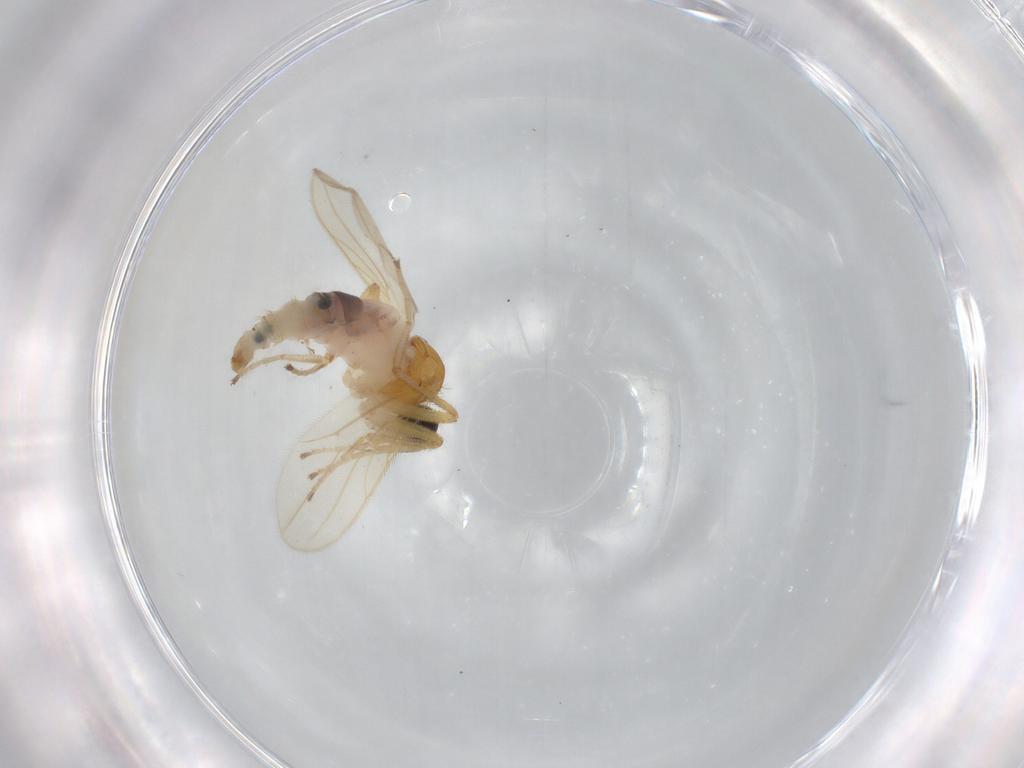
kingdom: Animalia
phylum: Arthropoda
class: Insecta
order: Diptera
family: Hybotidae
